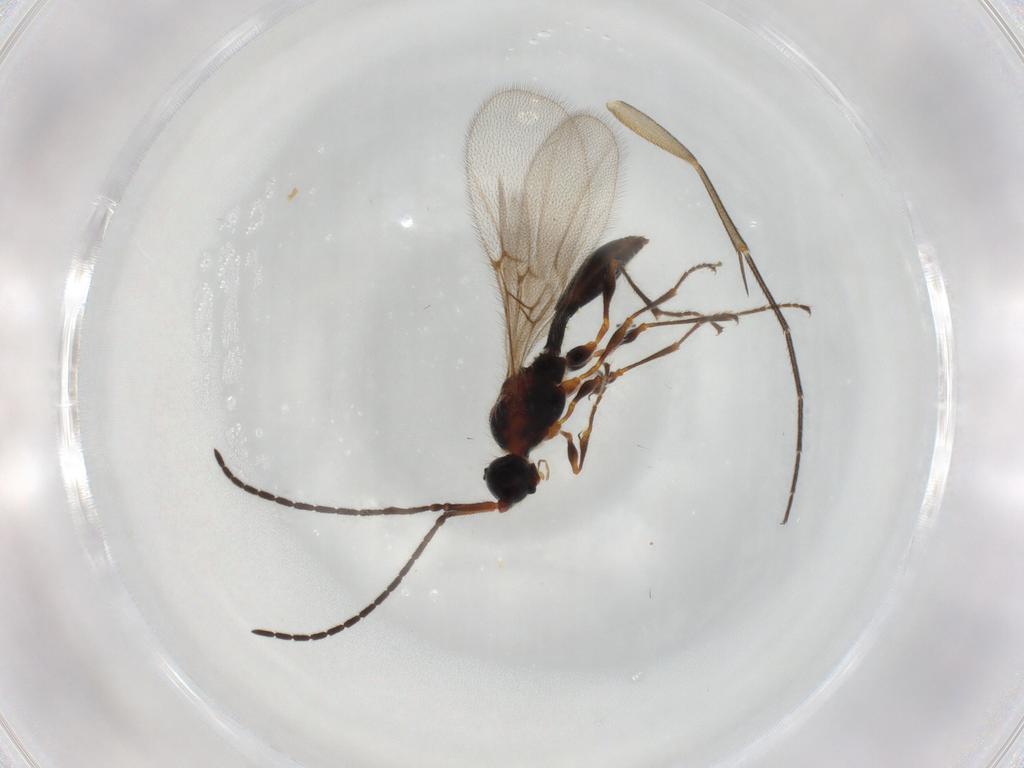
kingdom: Animalia
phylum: Arthropoda
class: Insecta
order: Hymenoptera
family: Diapriidae
